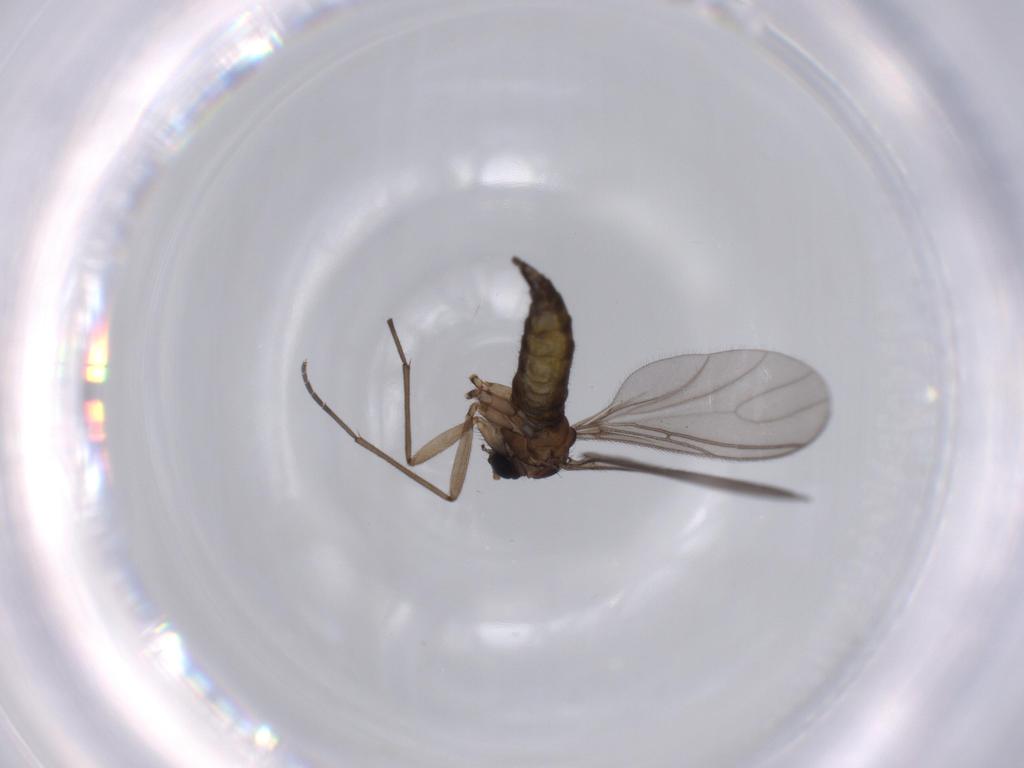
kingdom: Animalia
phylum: Arthropoda
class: Insecta
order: Diptera
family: Sciaridae
